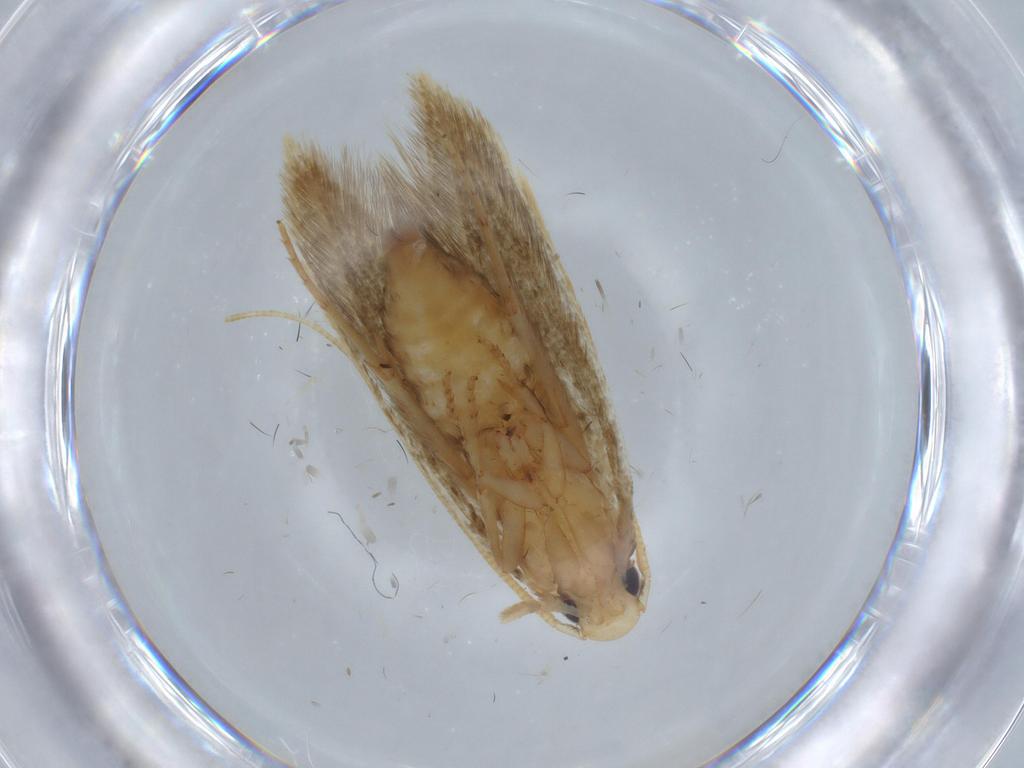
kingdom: Animalia
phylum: Arthropoda
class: Insecta
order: Lepidoptera
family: Tineidae
